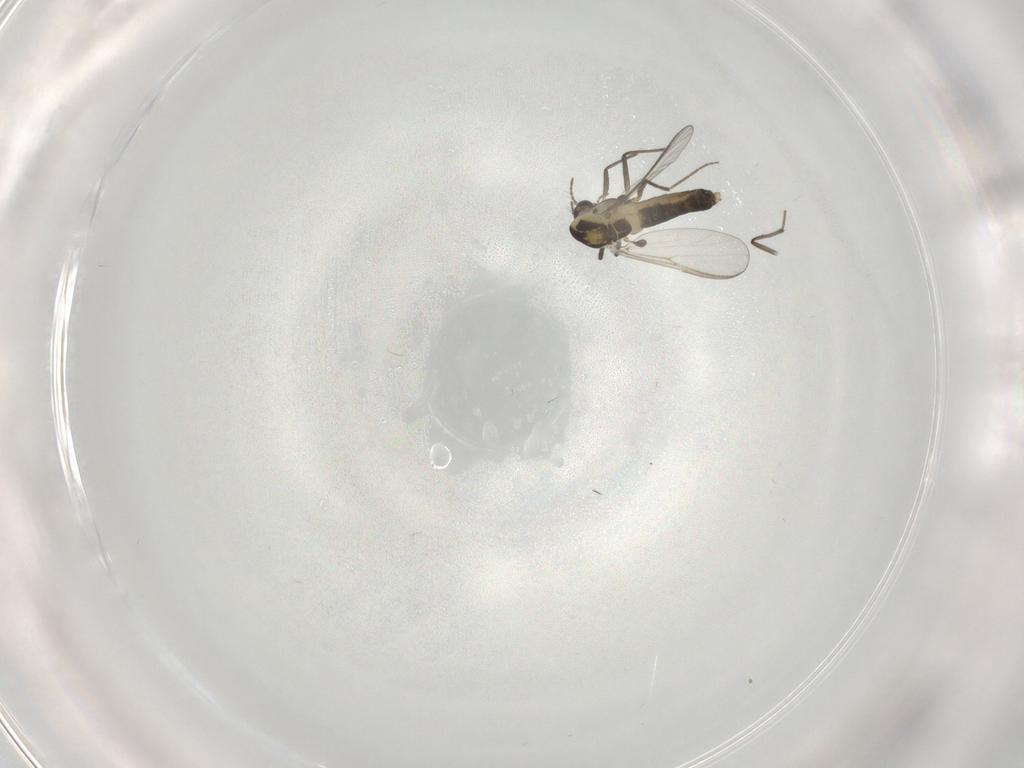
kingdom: Animalia
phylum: Arthropoda
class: Insecta
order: Diptera
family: Chironomidae
